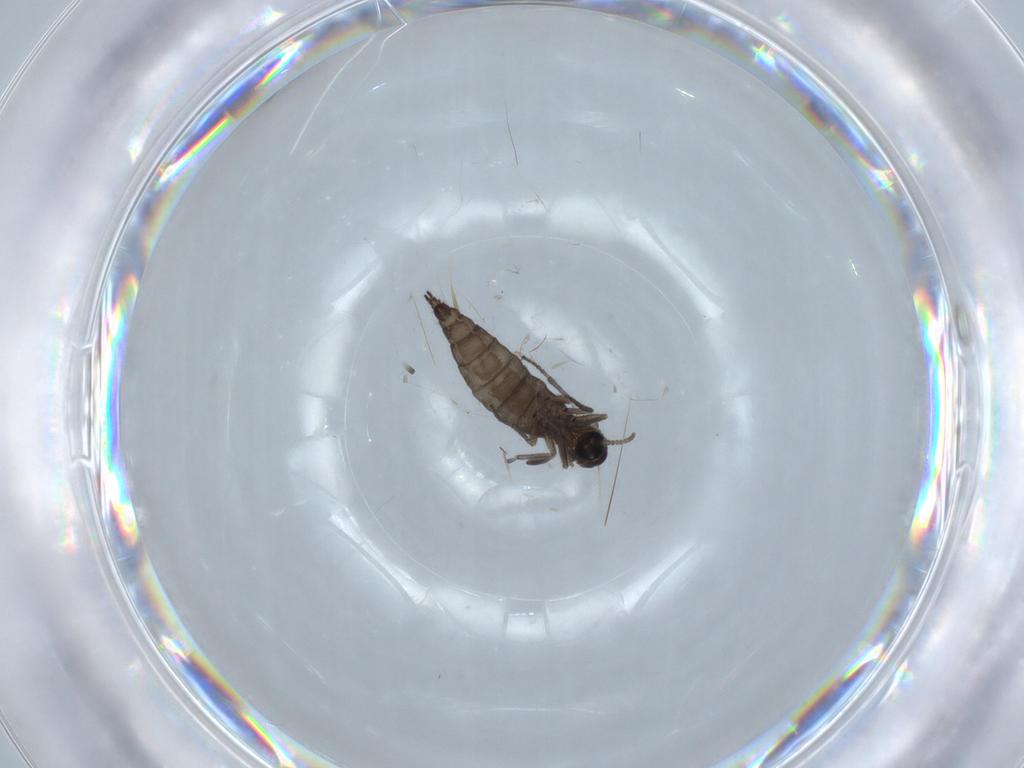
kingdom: Animalia
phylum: Arthropoda
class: Insecta
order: Diptera
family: Sciaridae
